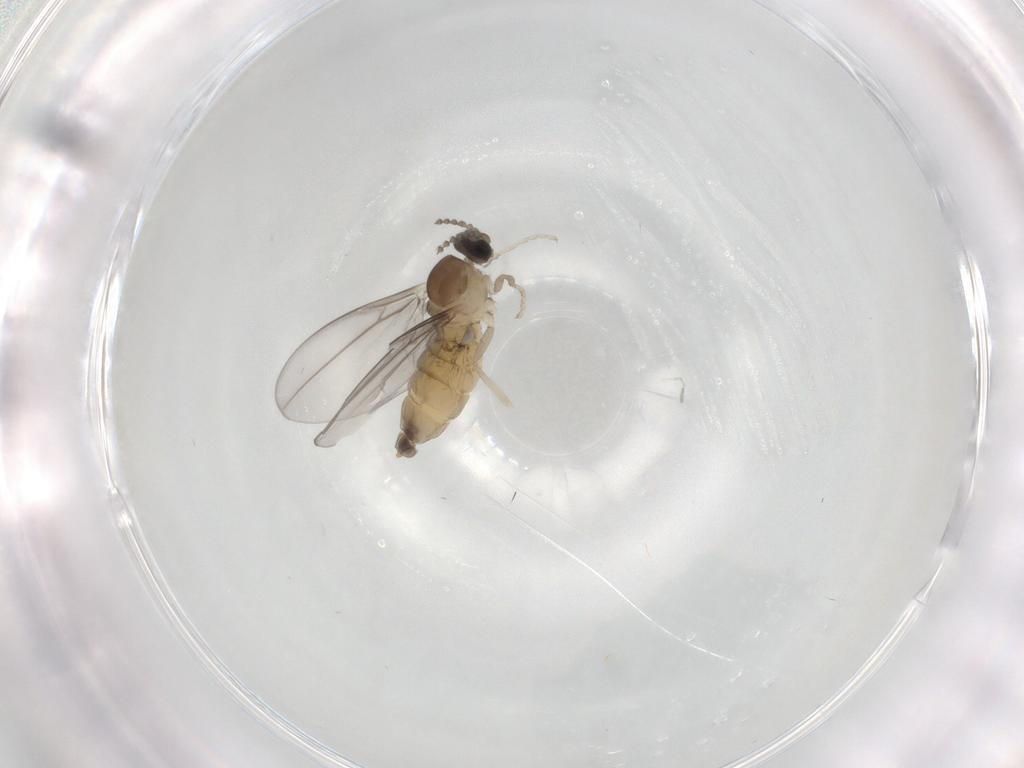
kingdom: Animalia
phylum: Arthropoda
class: Insecta
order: Diptera
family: Cecidomyiidae
